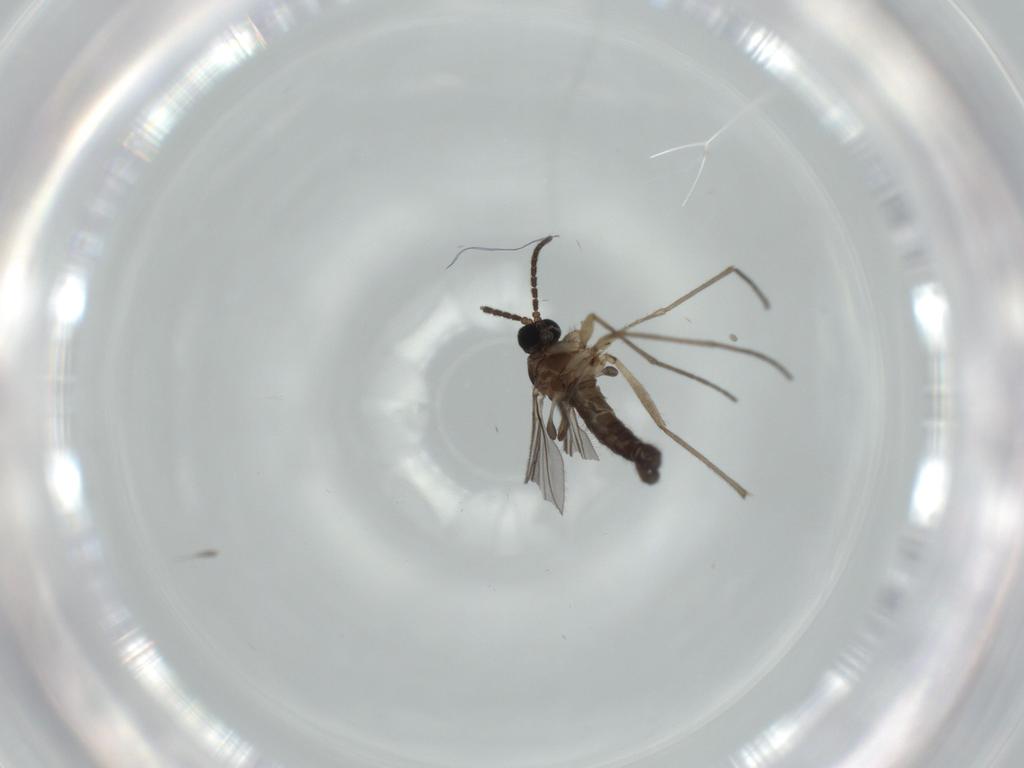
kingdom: Animalia
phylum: Arthropoda
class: Insecta
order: Diptera
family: Sciaridae
